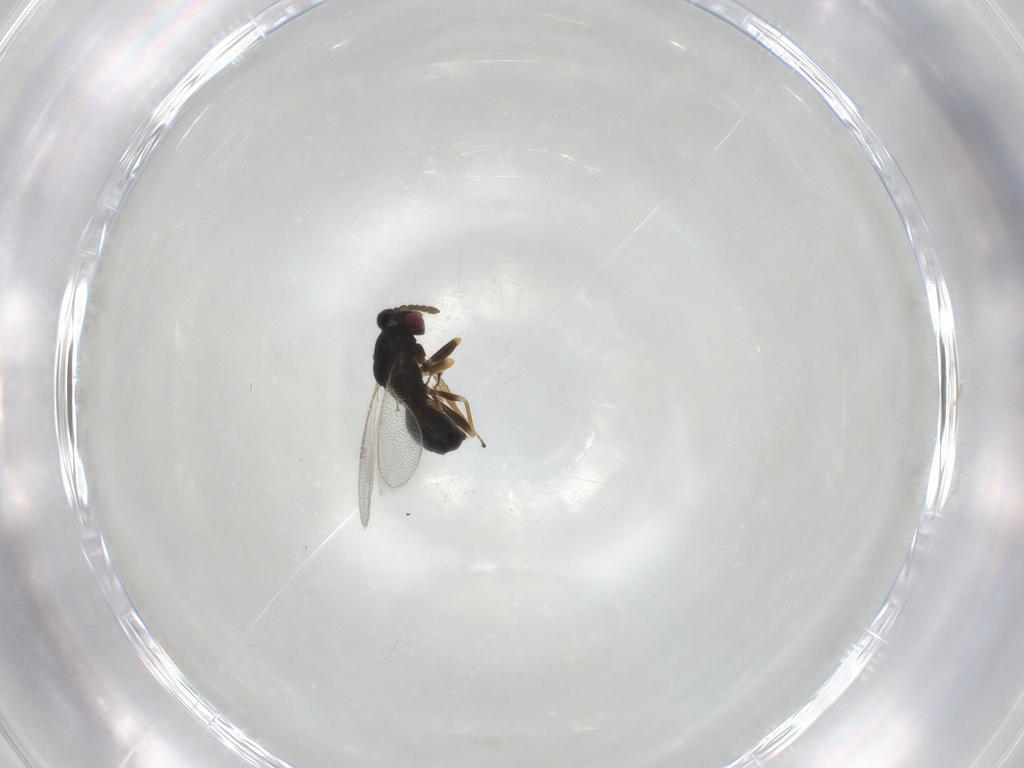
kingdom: Animalia
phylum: Arthropoda
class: Insecta
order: Hymenoptera
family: Eulophidae
